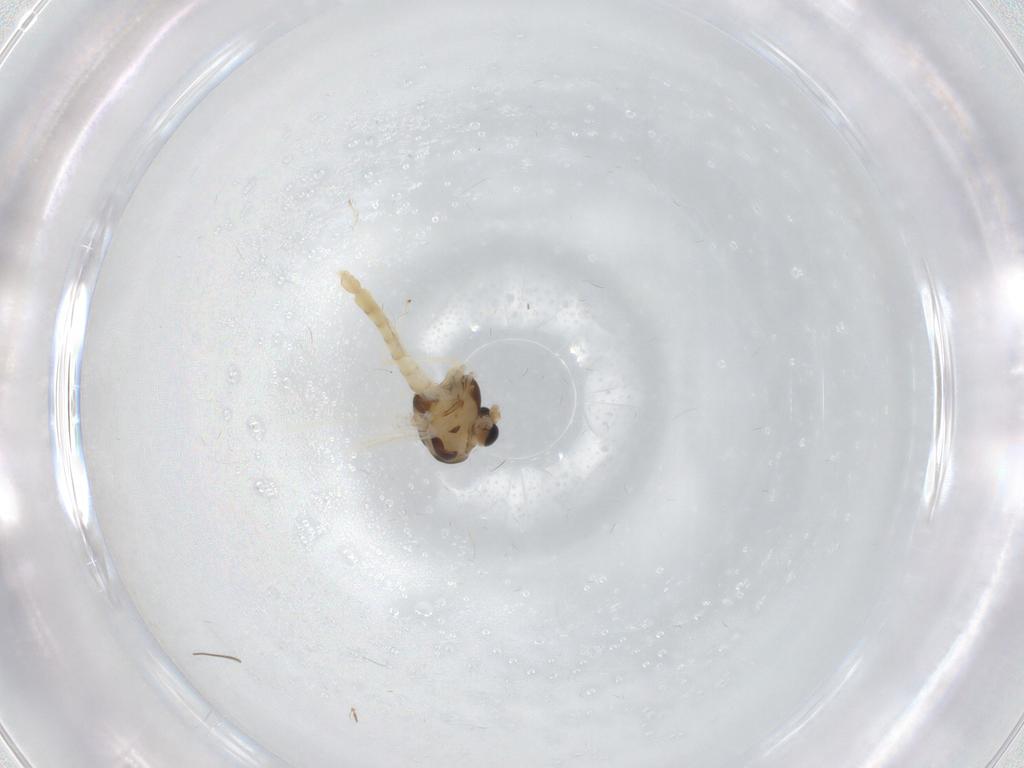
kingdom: Animalia
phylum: Arthropoda
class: Insecta
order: Diptera
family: Chironomidae
